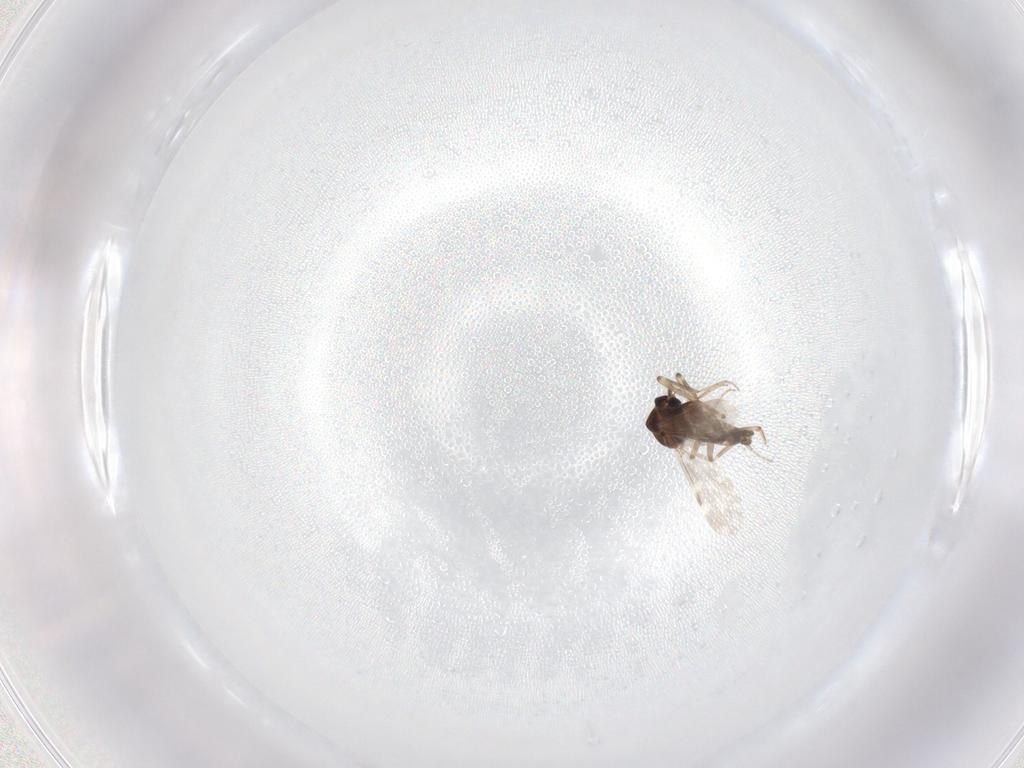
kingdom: Animalia
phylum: Arthropoda
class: Insecta
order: Diptera
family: Ceratopogonidae
